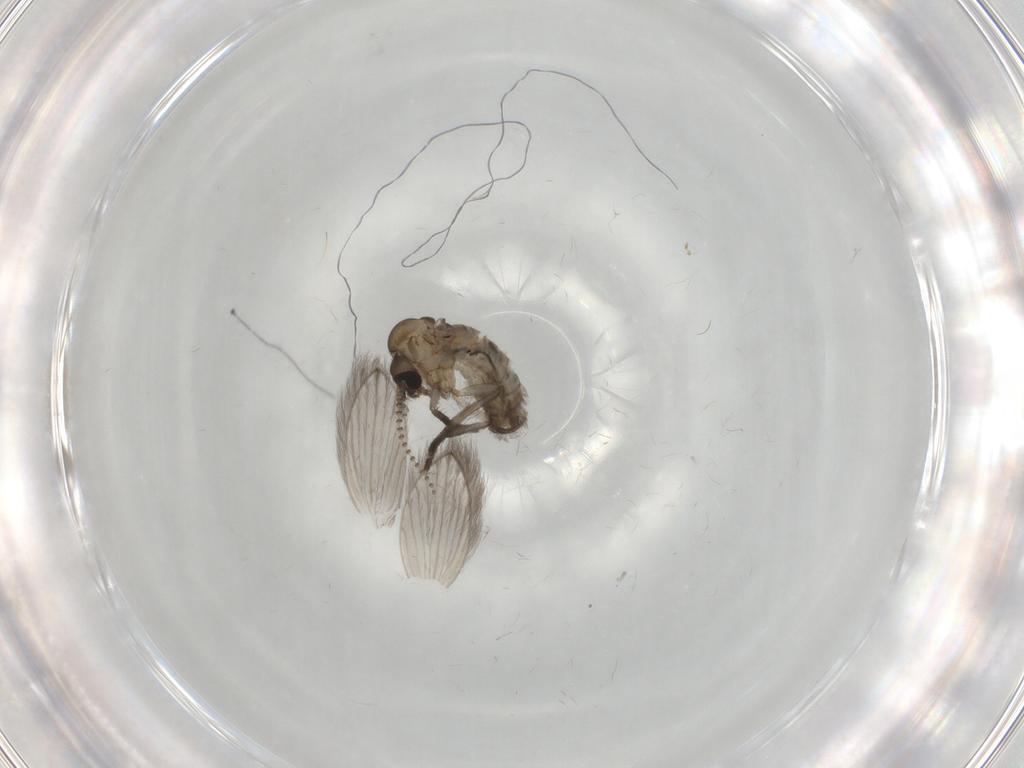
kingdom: Animalia
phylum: Arthropoda
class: Insecta
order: Diptera
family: Psychodidae
